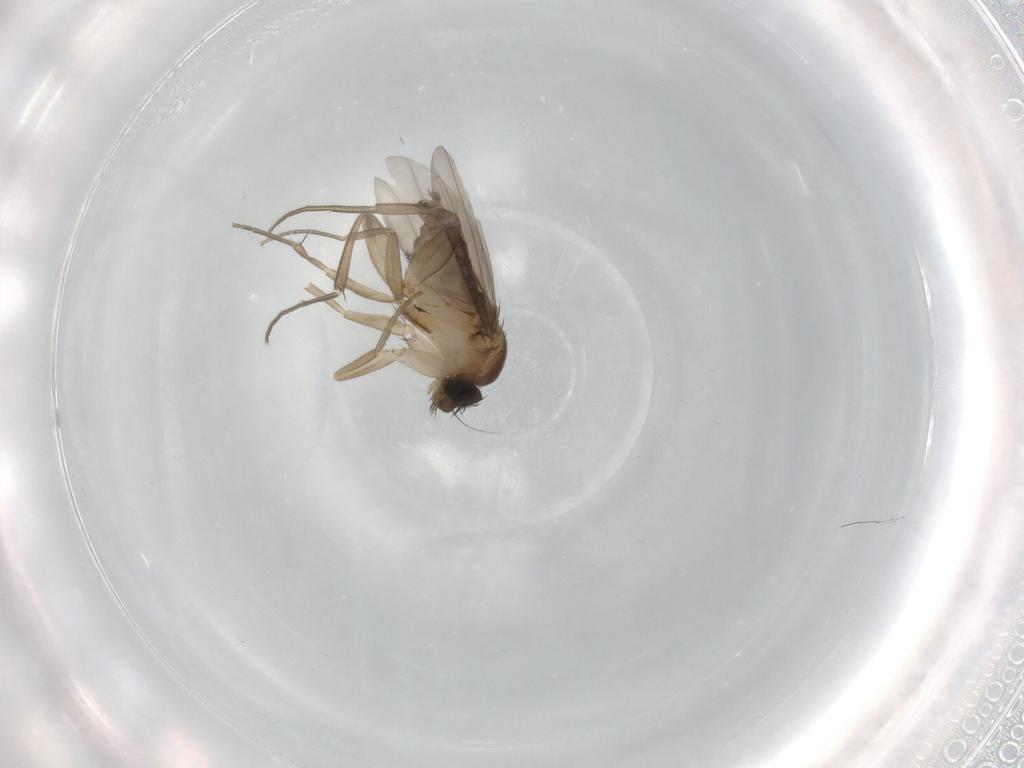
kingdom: Animalia
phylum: Arthropoda
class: Insecta
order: Diptera
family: Phoridae
